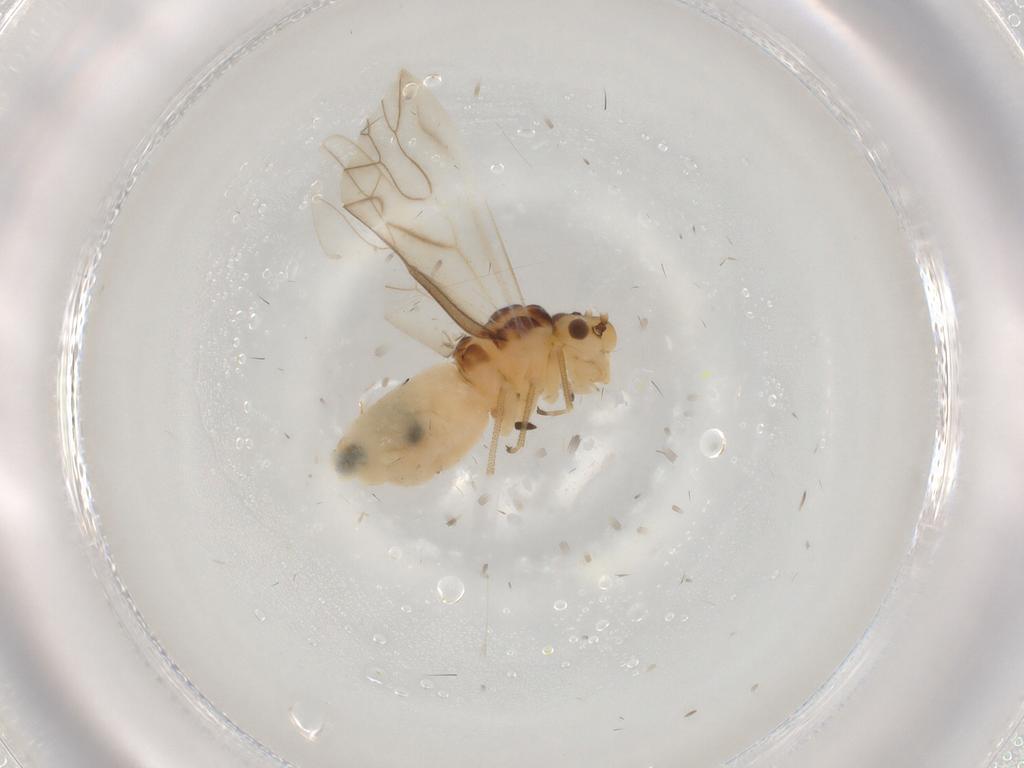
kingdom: Animalia
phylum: Arthropoda
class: Insecta
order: Psocodea
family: Caeciliusidae
